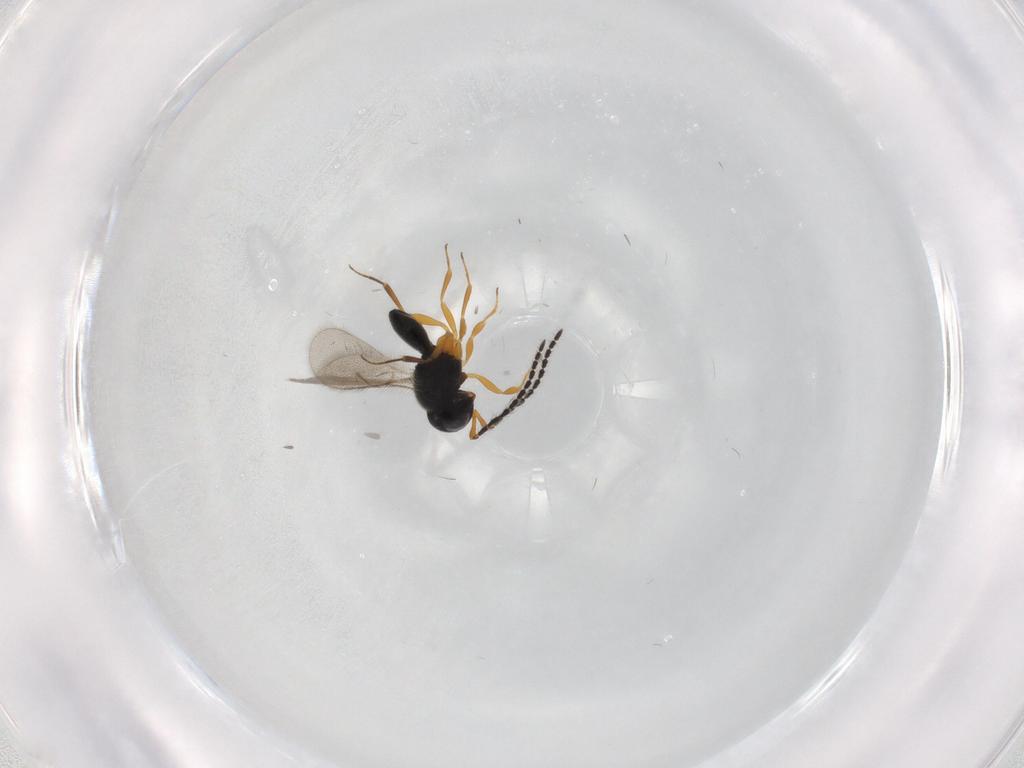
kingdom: Animalia
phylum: Arthropoda
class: Insecta
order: Hymenoptera
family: Scelionidae
